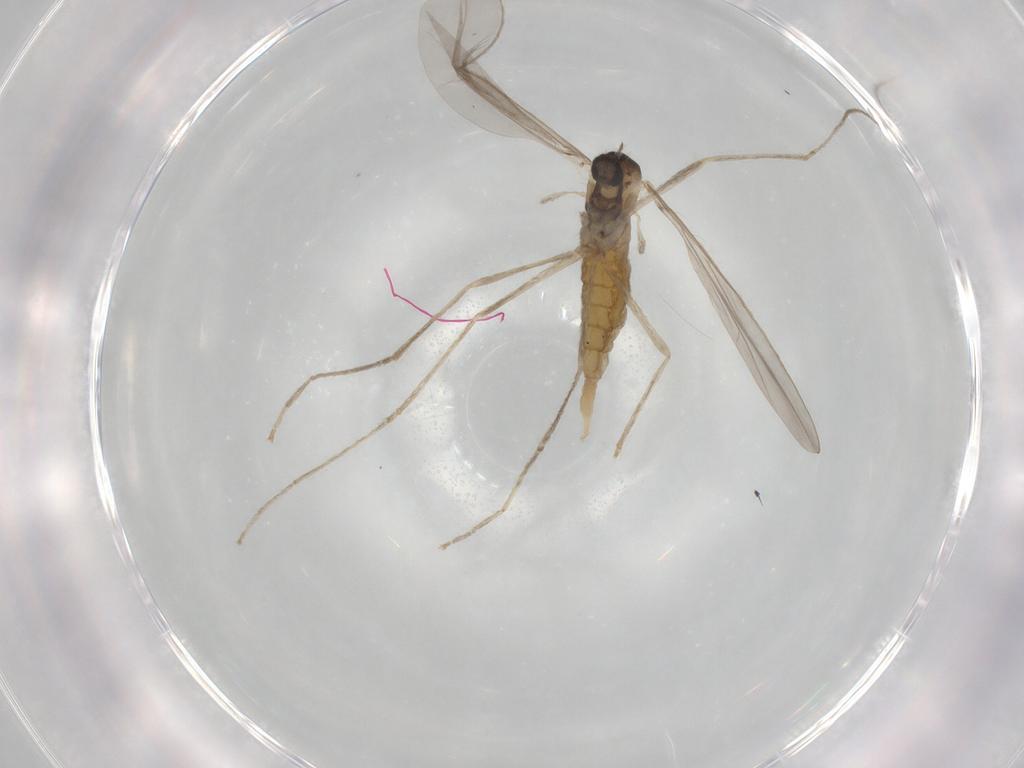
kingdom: Animalia
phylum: Arthropoda
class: Insecta
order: Diptera
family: Cecidomyiidae
